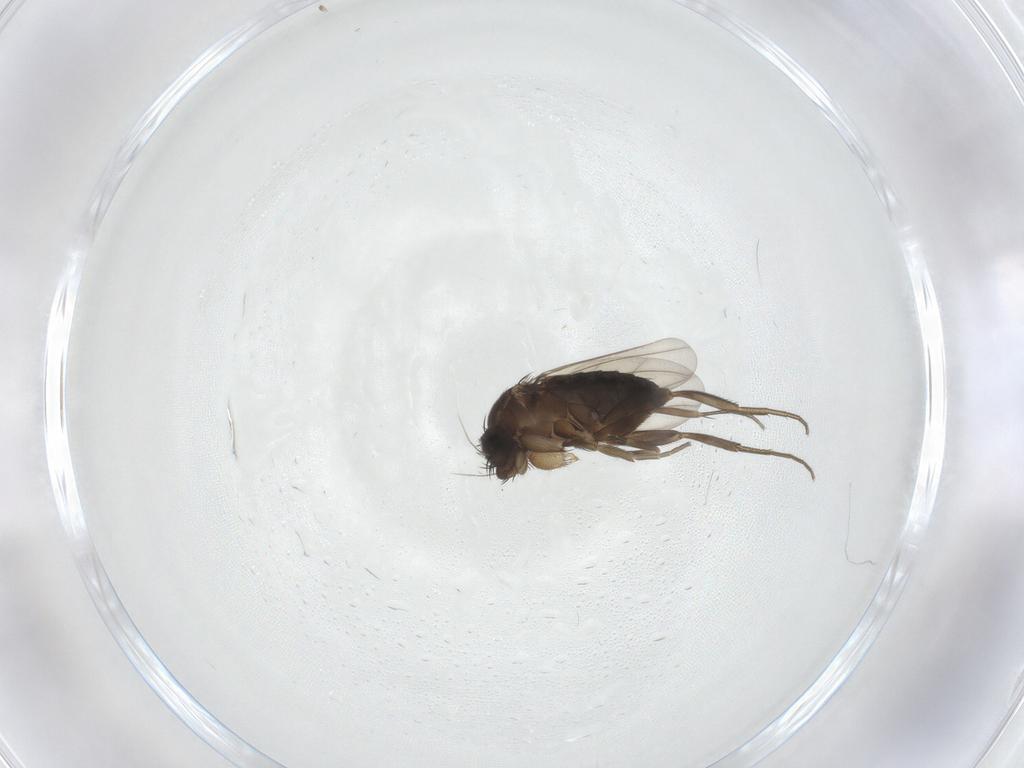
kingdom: Animalia
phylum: Arthropoda
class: Insecta
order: Diptera
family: Phoridae
